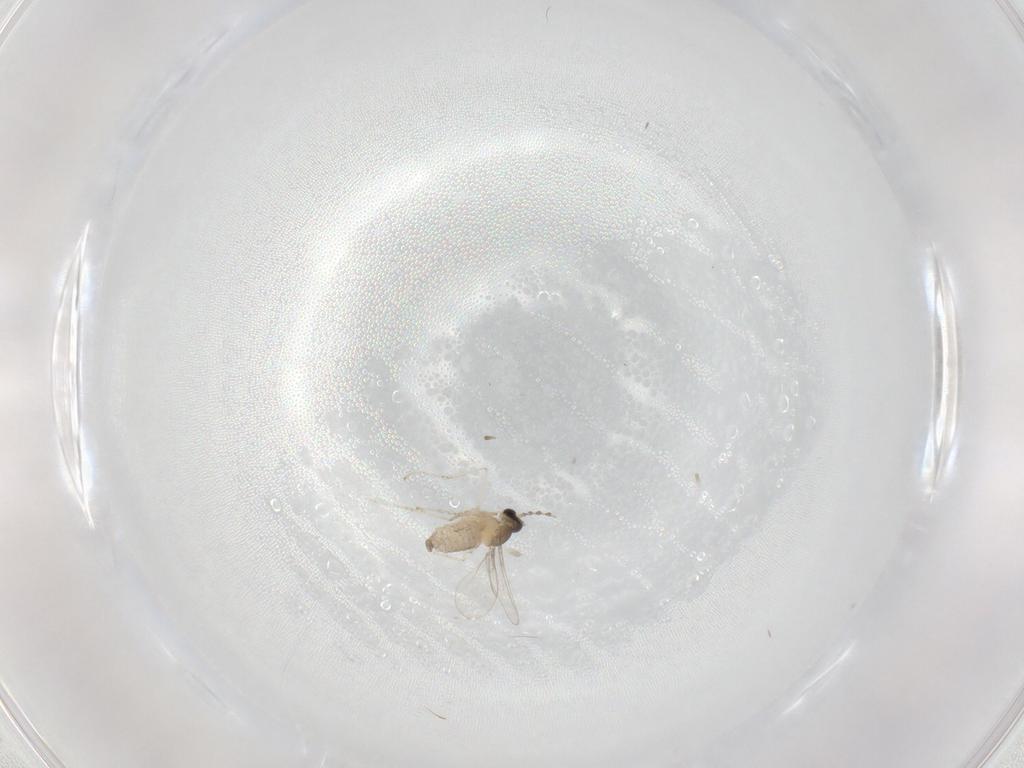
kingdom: Animalia
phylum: Arthropoda
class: Insecta
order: Diptera
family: Cecidomyiidae
